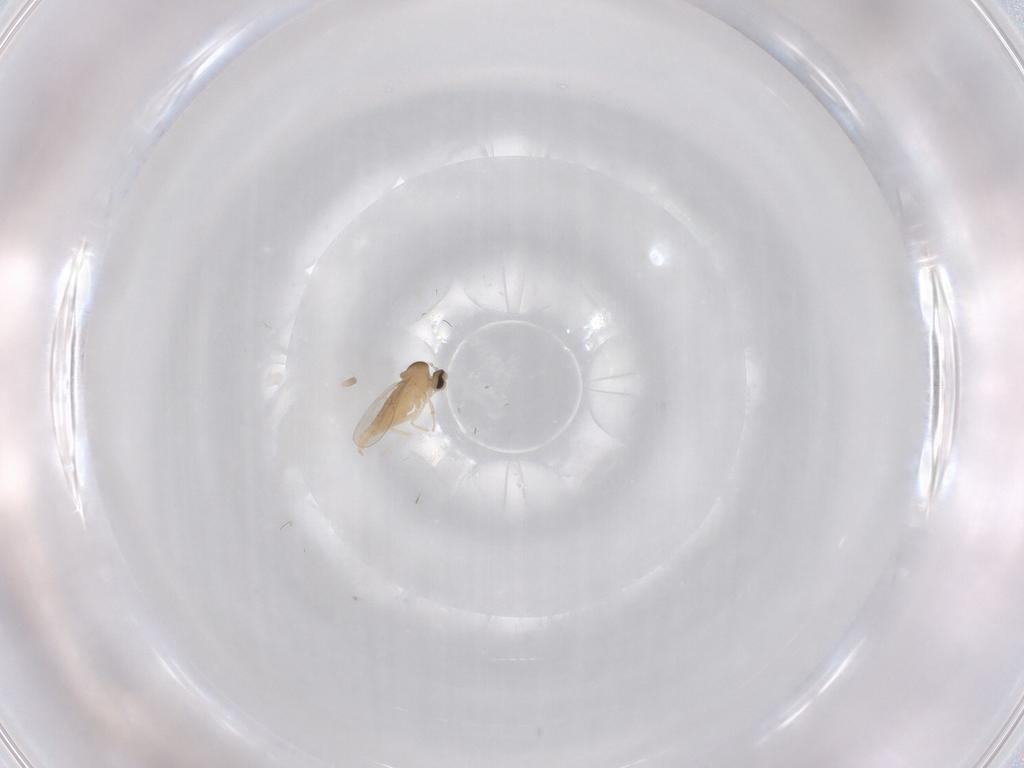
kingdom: Animalia
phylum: Arthropoda
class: Insecta
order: Diptera
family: Cecidomyiidae
